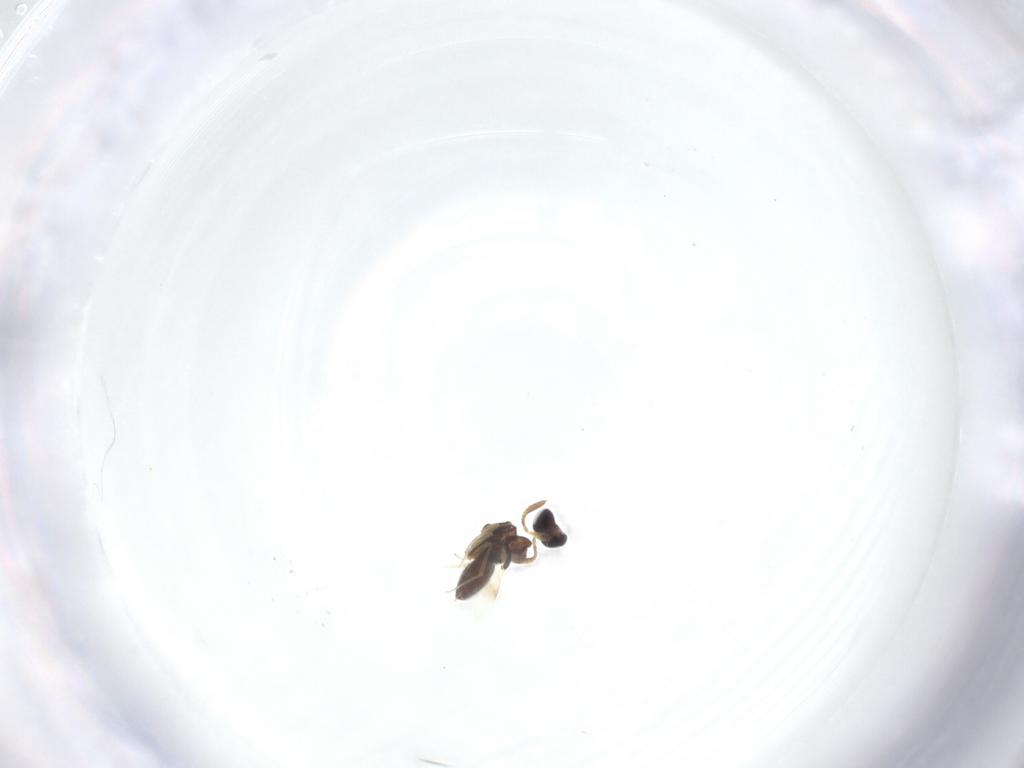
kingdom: Animalia
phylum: Arthropoda
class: Insecta
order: Hymenoptera
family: Scelionidae
